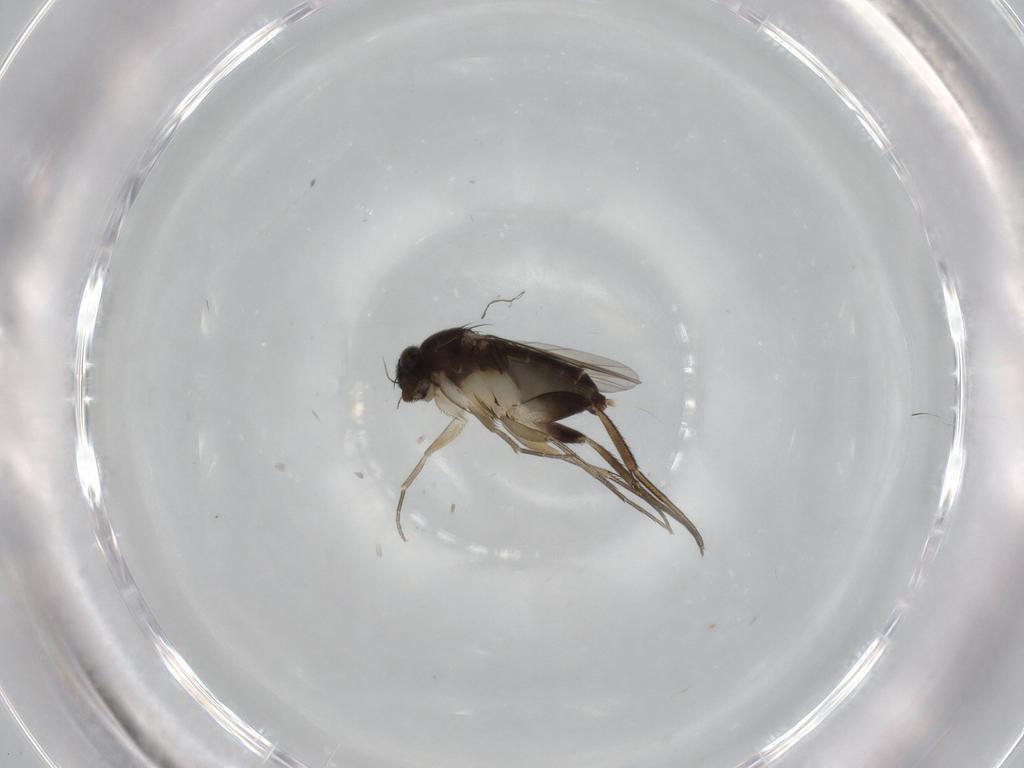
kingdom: Animalia
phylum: Arthropoda
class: Insecta
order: Diptera
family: Phoridae
